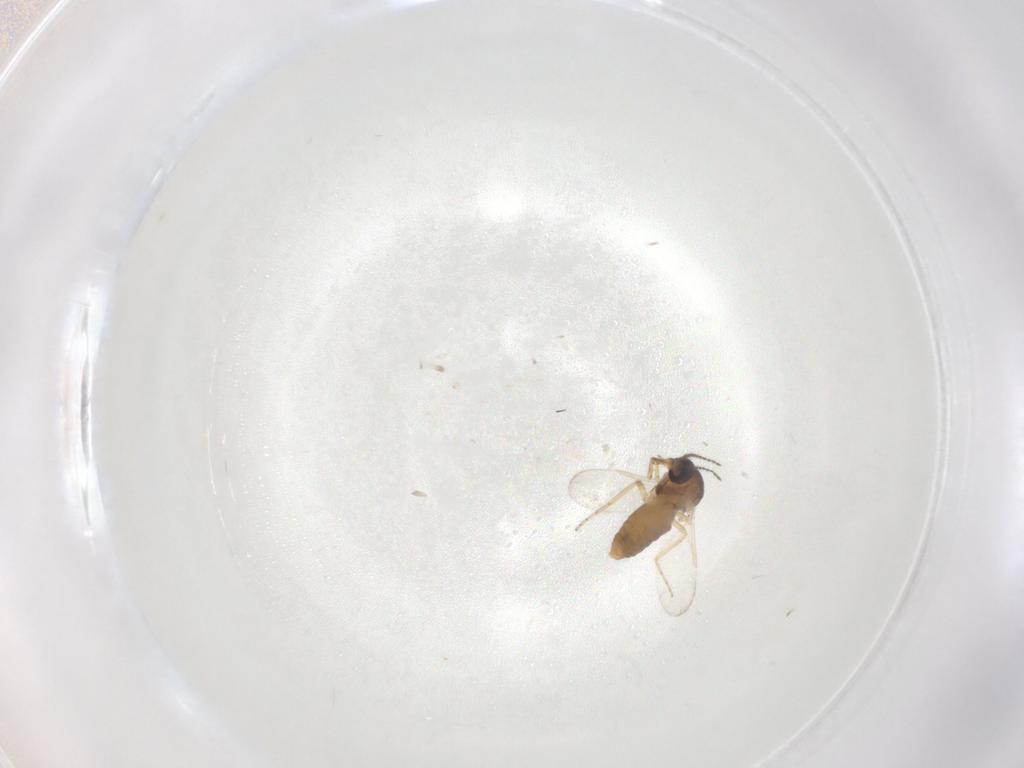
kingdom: Animalia
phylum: Arthropoda
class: Insecta
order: Diptera
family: Ceratopogonidae
